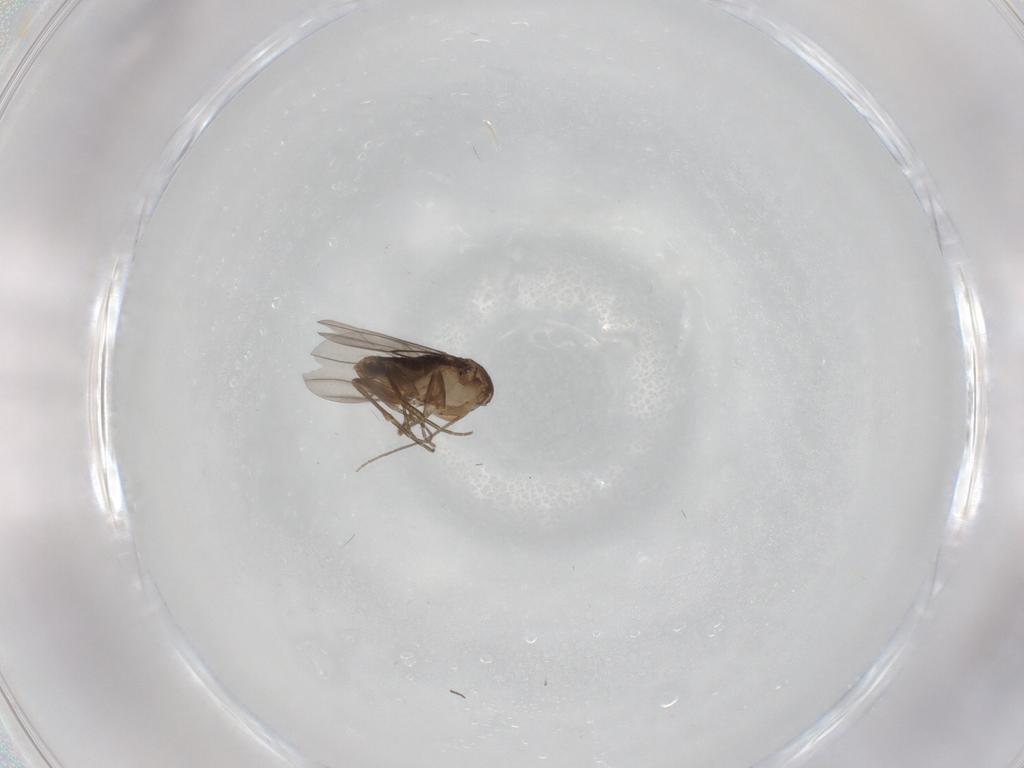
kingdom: Animalia
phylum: Arthropoda
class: Insecta
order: Diptera
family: Phoridae
